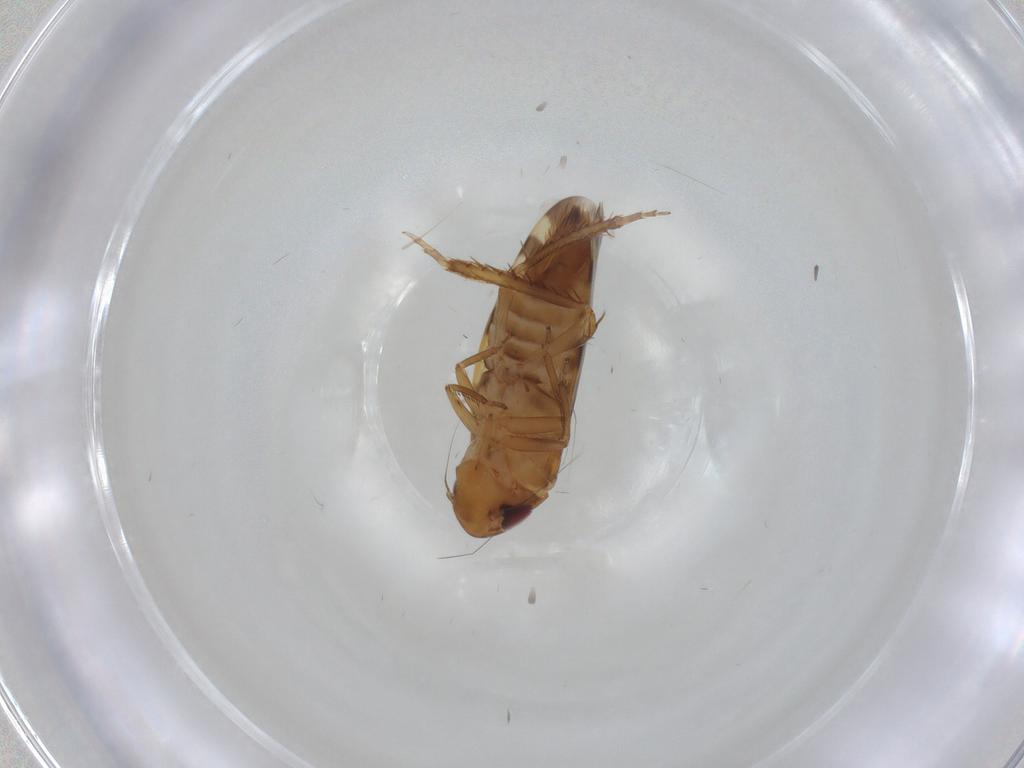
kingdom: Animalia
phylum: Arthropoda
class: Insecta
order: Hemiptera
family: Cicadellidae
